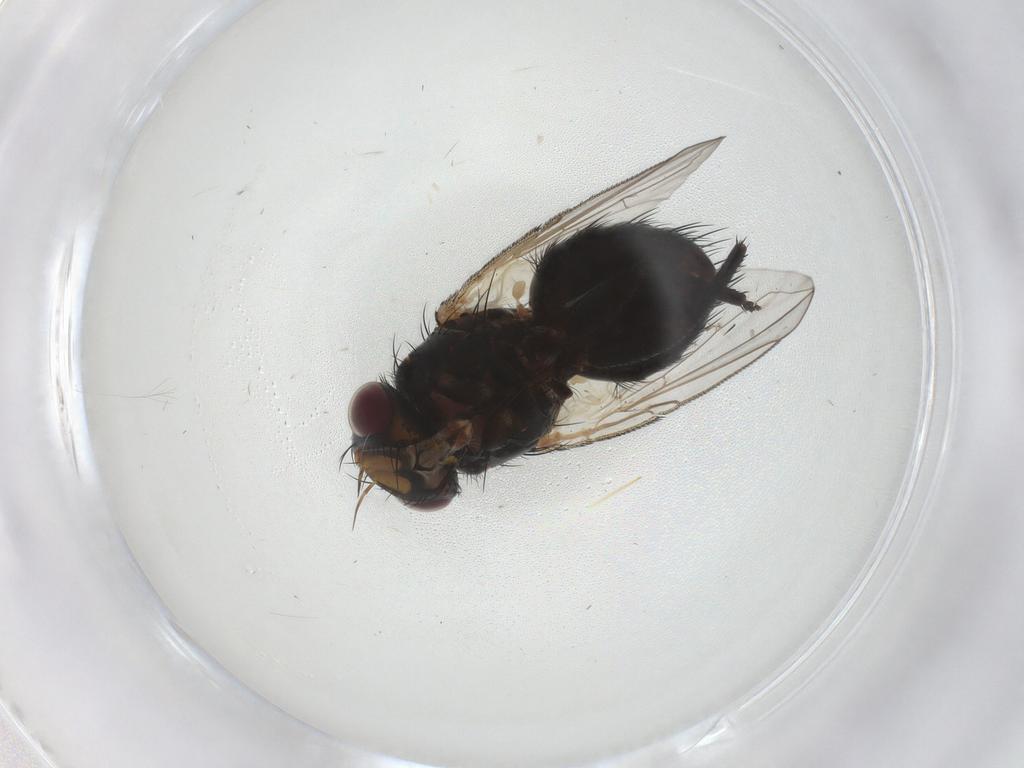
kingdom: Animalia
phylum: Arthropoda
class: Insecta
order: Diptera
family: Tachinidae
